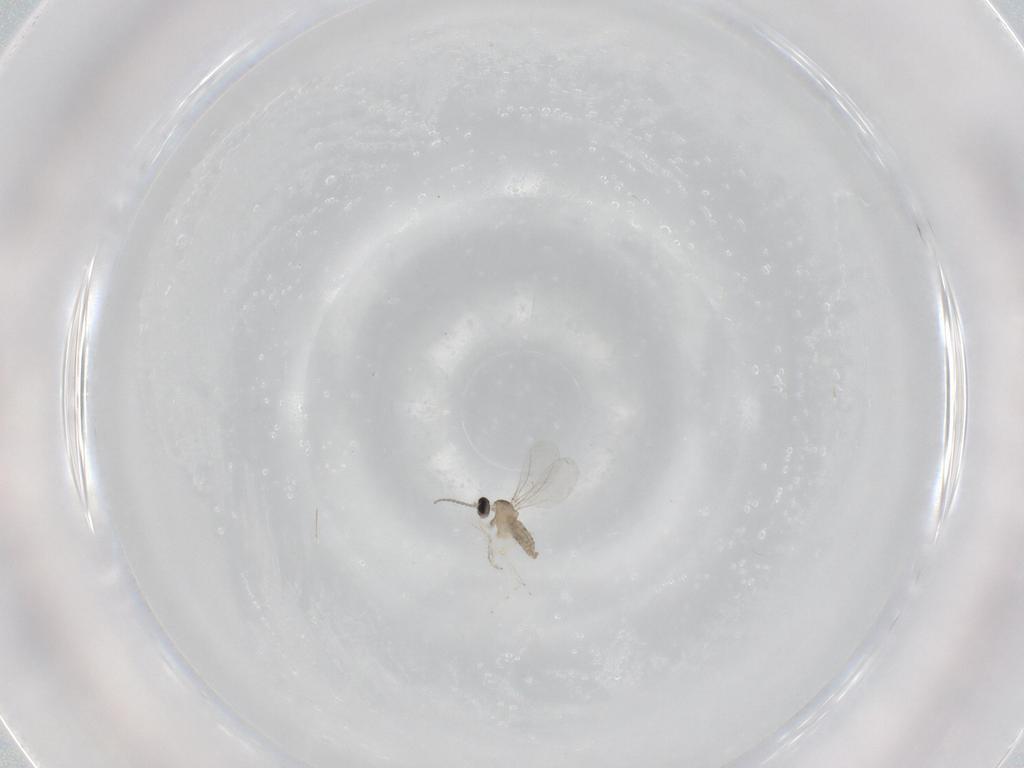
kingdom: Animalia
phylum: Arthropoda
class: Insecta
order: Diptera
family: Cecidomyiidae
